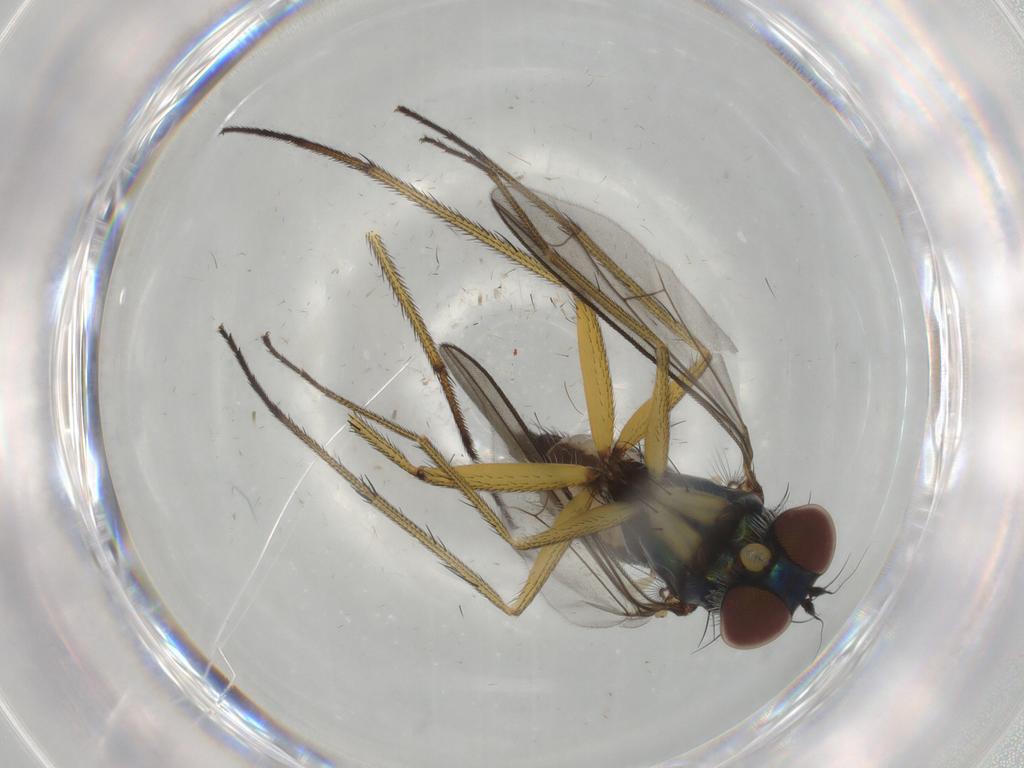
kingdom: Animalia
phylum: Arthropoda
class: Insecta
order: Diptera
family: Dolichopodidae
